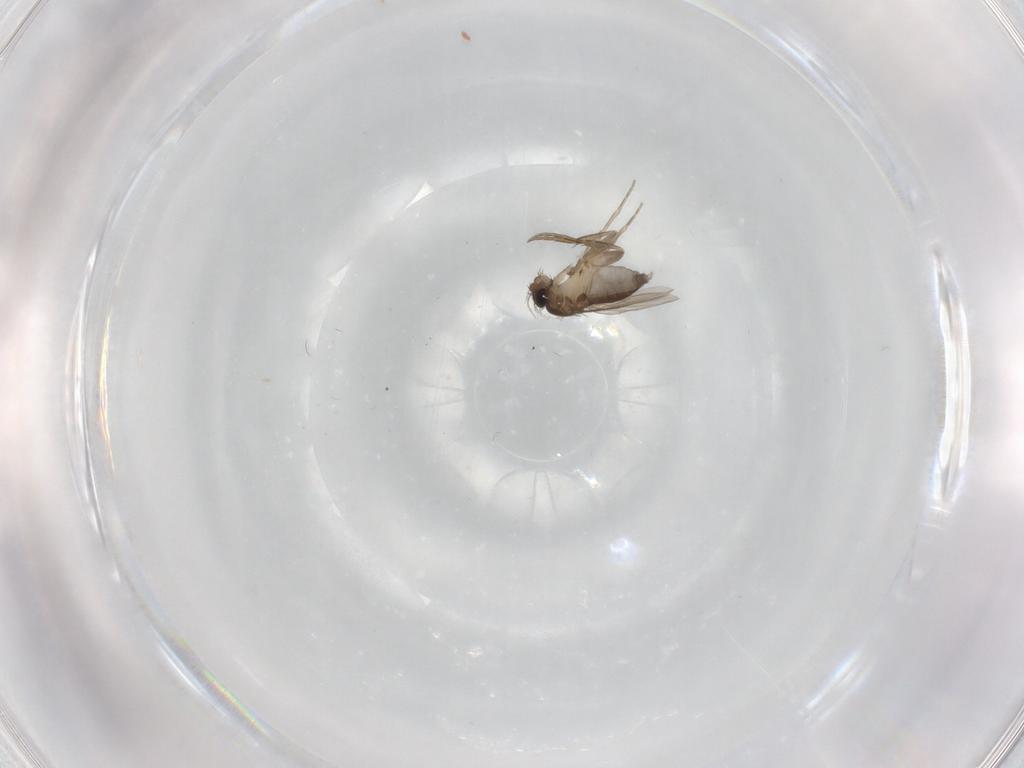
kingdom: Animalia
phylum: Arthropoda
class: Insecta
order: Diptera
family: Phoridae
